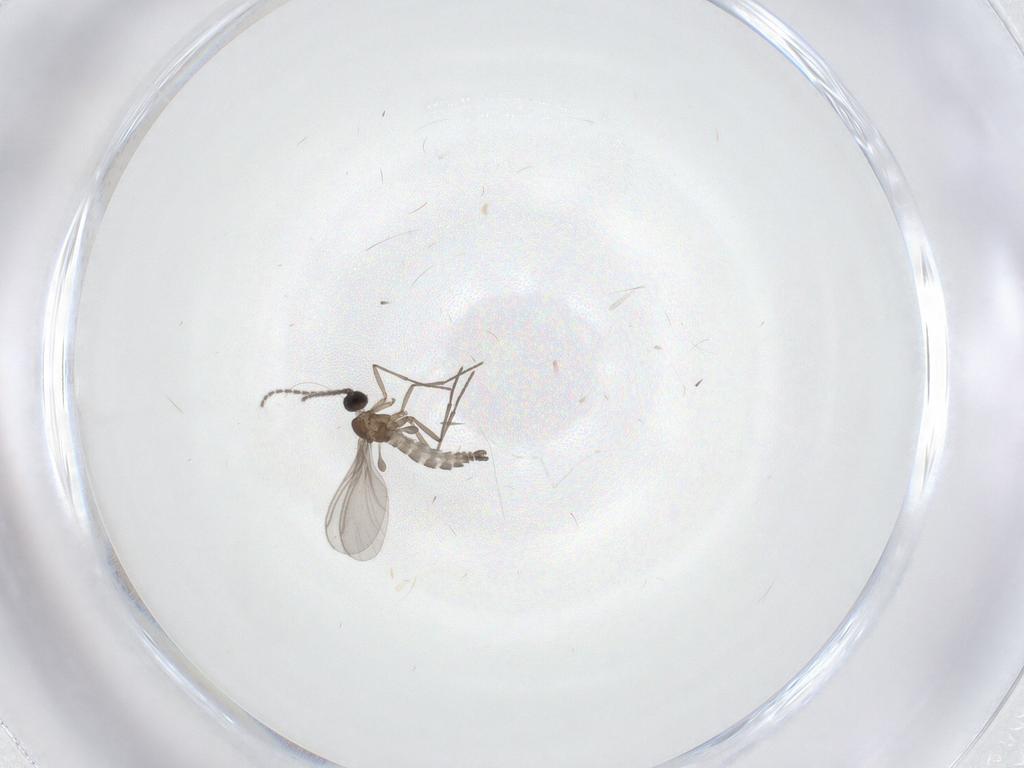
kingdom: Animalia
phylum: Arthropoda
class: Insecta
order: Diptera
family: Sciaridae
